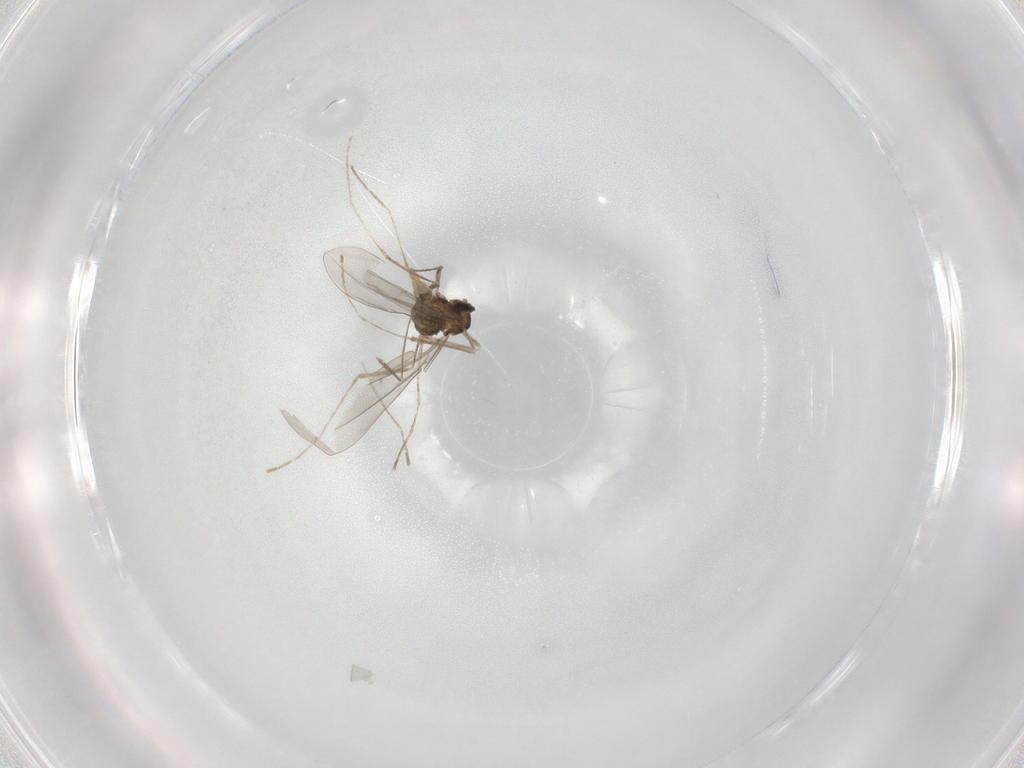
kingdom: Animalia
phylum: Arthropoda
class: Insecta
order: Diptera
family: Cecidomyiidae
